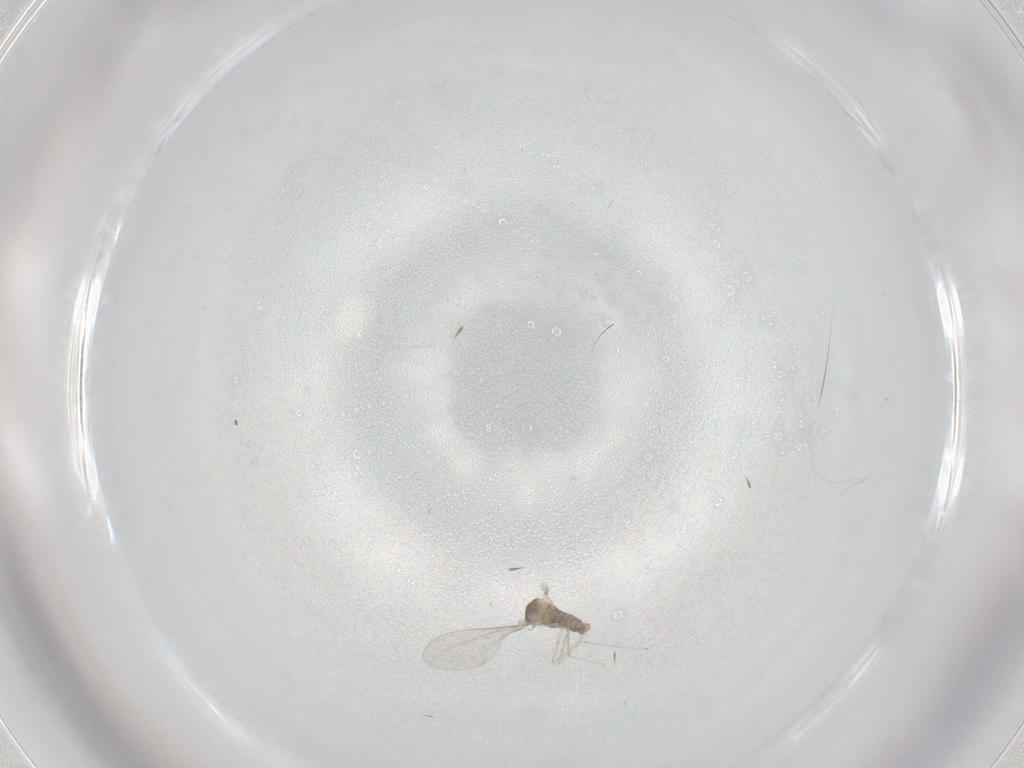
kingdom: Animalia
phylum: Arthropoda
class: Insecta
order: Diptera
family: Cecidomyiidae
